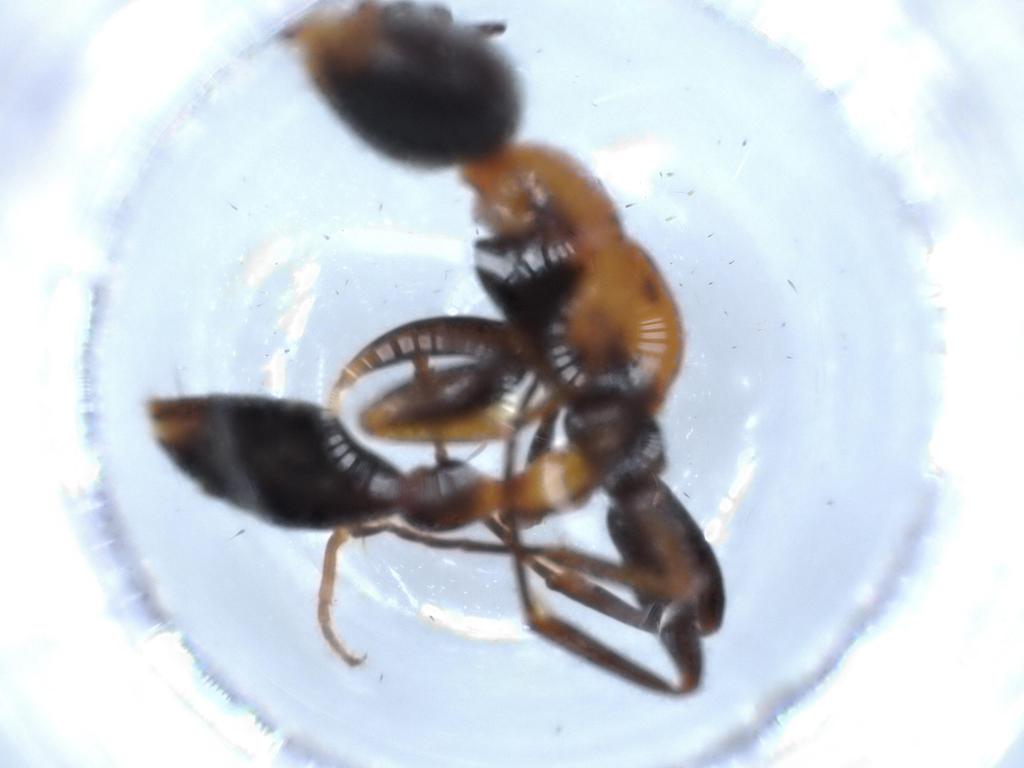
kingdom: Animalia
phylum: Arthropoda
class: Insecta
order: Hymenoptera
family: Formicidae
